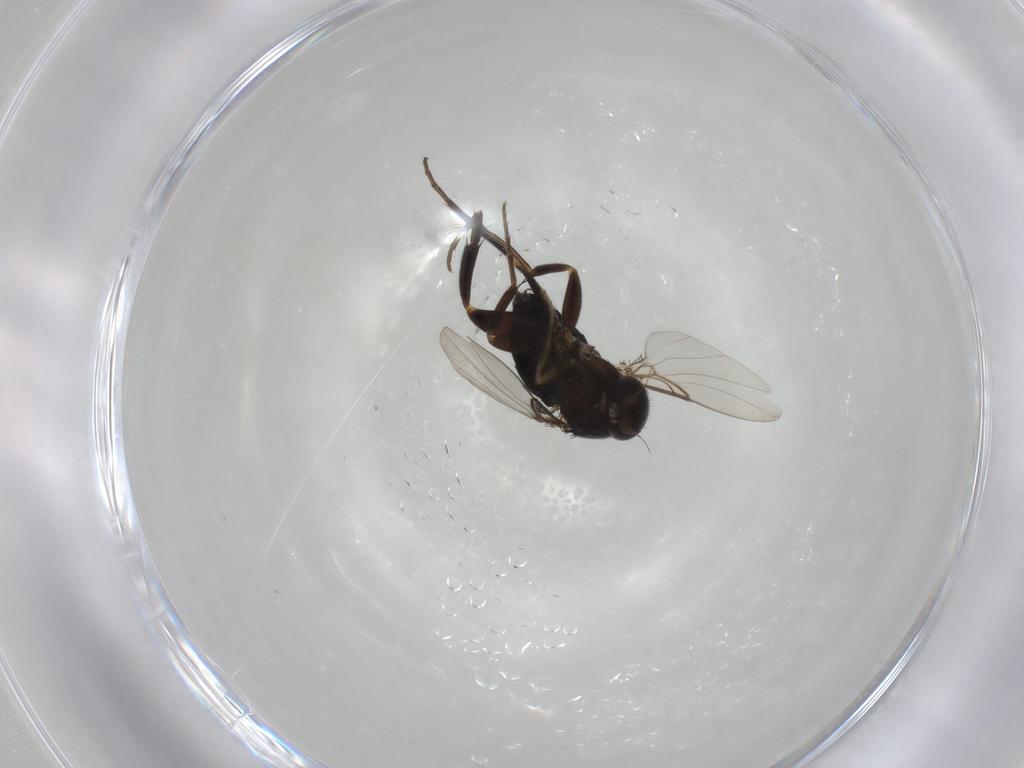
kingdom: Animalia
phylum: Arthropoda
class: Insecta
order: Diptera
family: Phoridae
